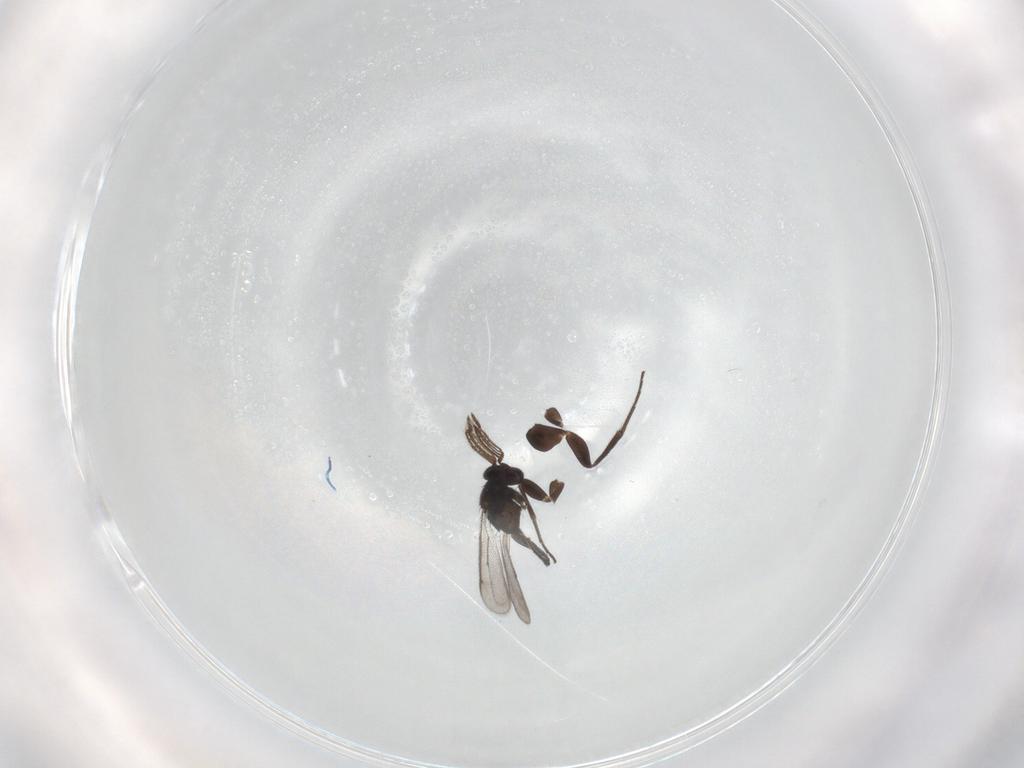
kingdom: Animalia
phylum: Arthropoda
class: Insecta
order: Hymenoptera
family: Eulophidae
